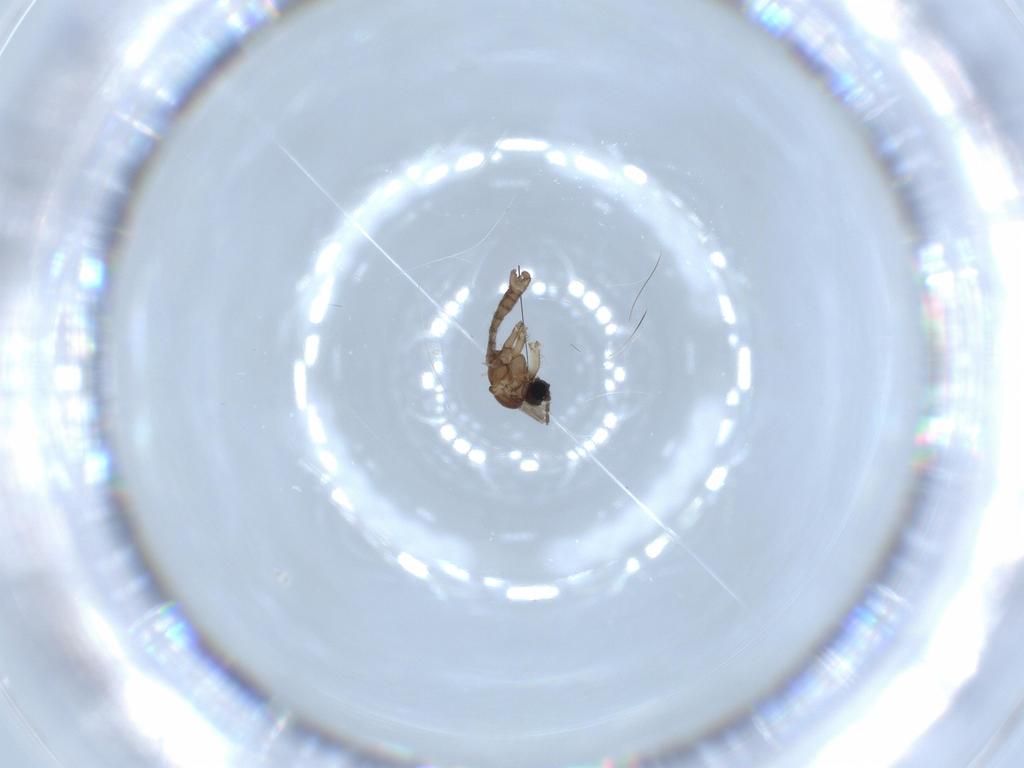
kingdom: Animalia
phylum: Arthropoda
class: Insecta
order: Diptera
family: Sciaridae
